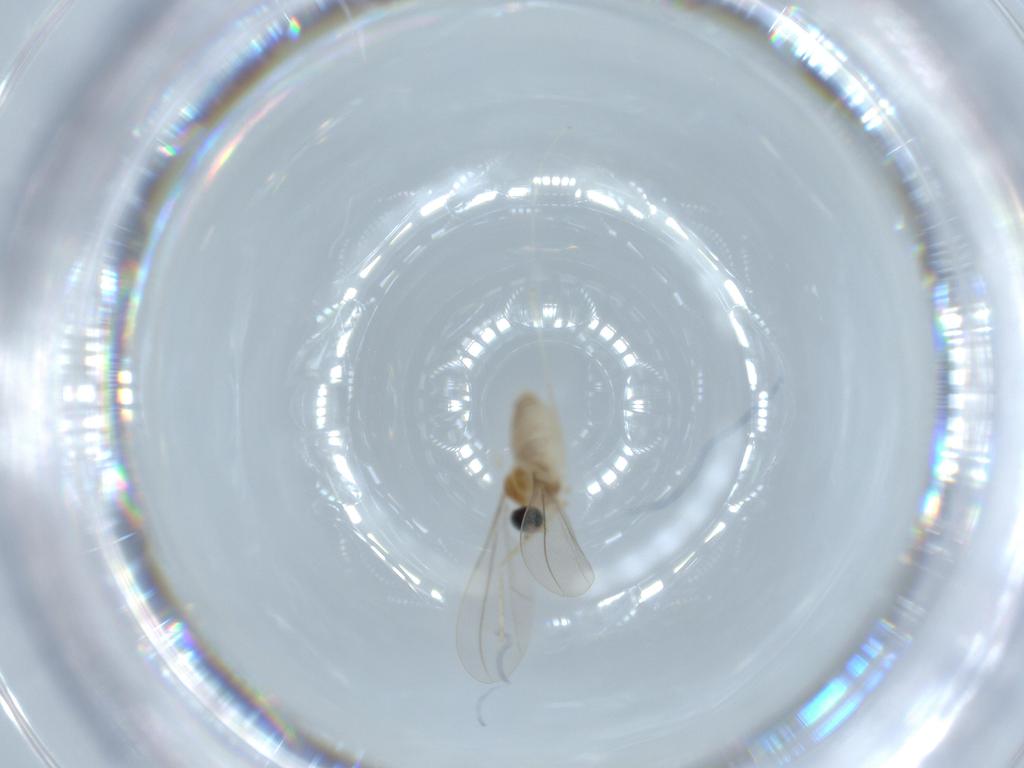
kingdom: Animalia
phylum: Arthropoda
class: Insecta
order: Diptera
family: Cecidomyiidae
